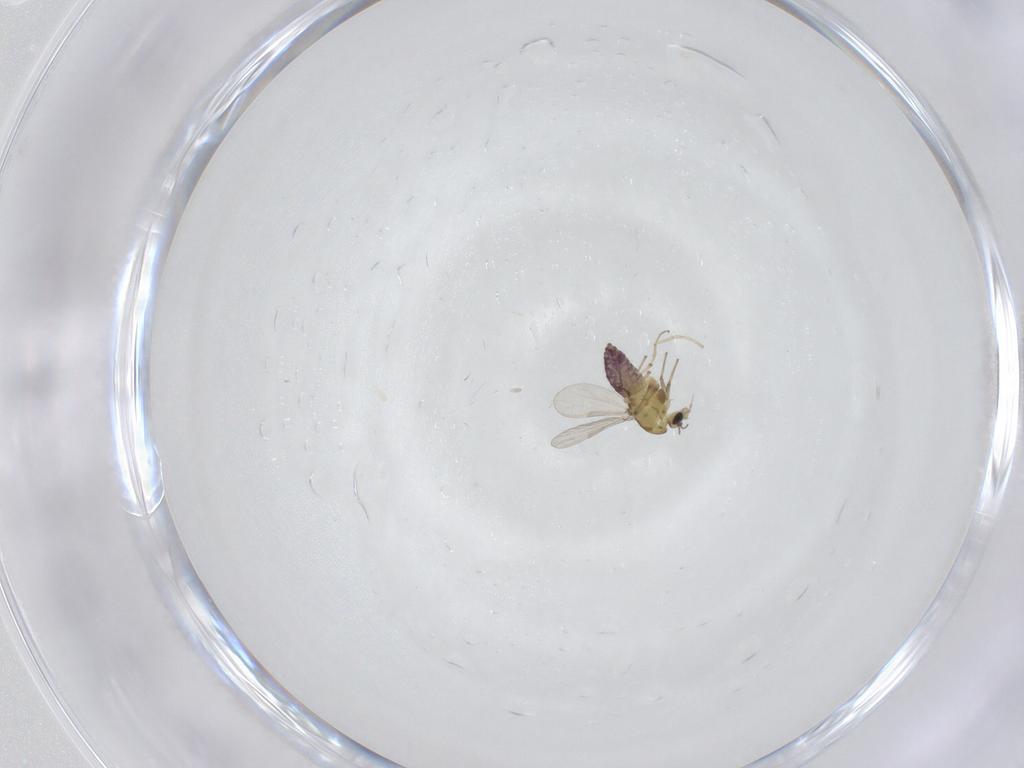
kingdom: Animalia
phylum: Arthropoda
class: Insecta
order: Diptera
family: Chironomidae
